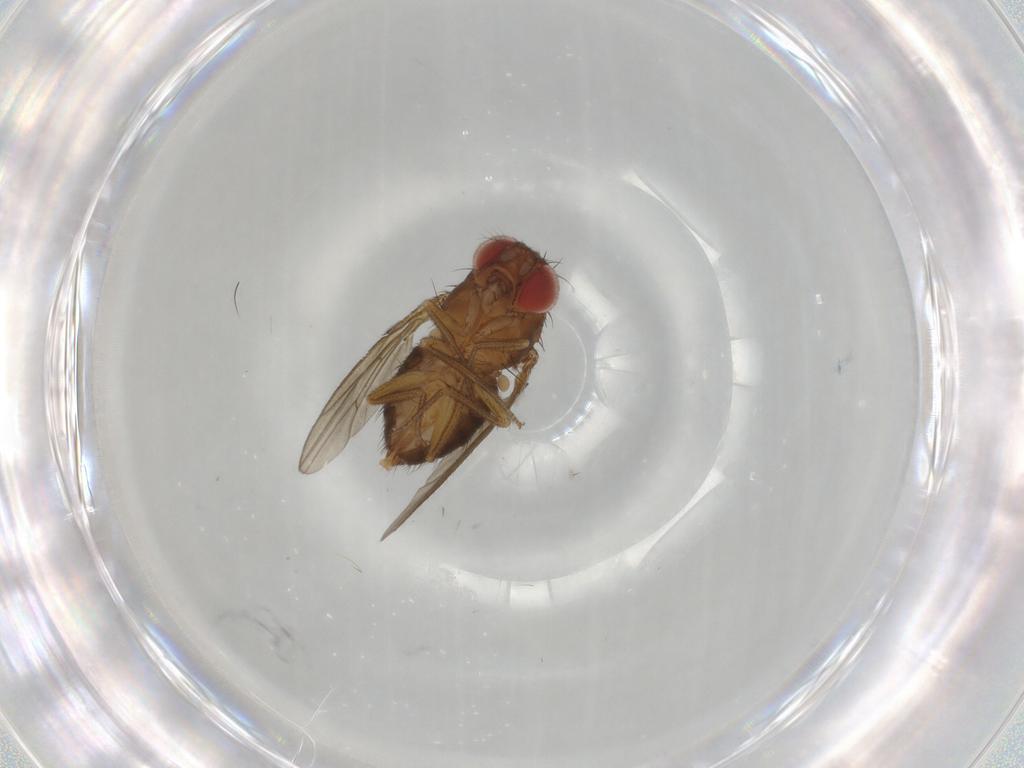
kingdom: Animalia
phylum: Arthropoda
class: Insecta
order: Diptera
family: Drosophilidae
